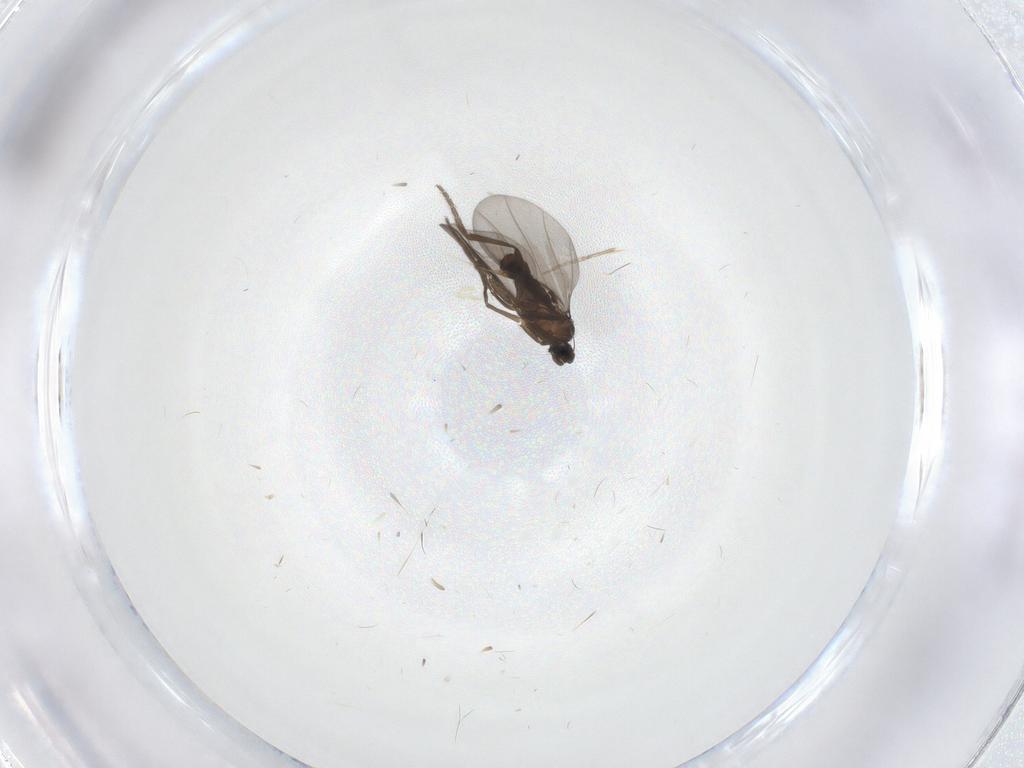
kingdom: Animalia
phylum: Arthropoda
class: Insecta
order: Diptera
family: Phoridae
